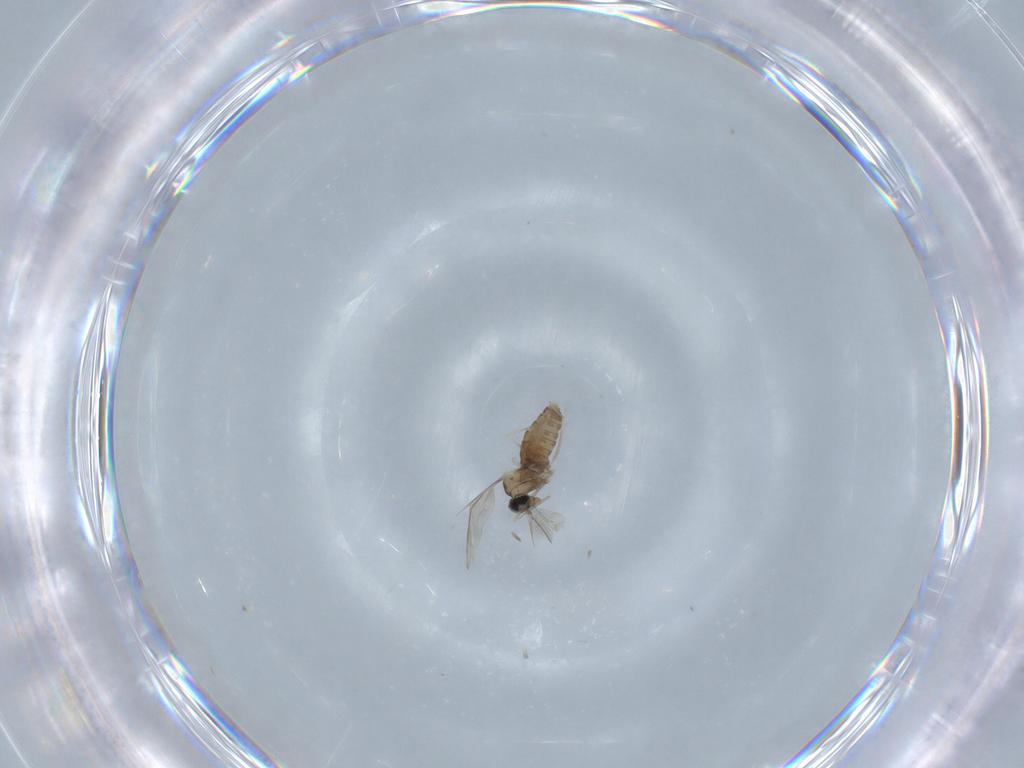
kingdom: Animalia
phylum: Arthropoda
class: Insecta
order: Diptera
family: Cecidomyiidae
